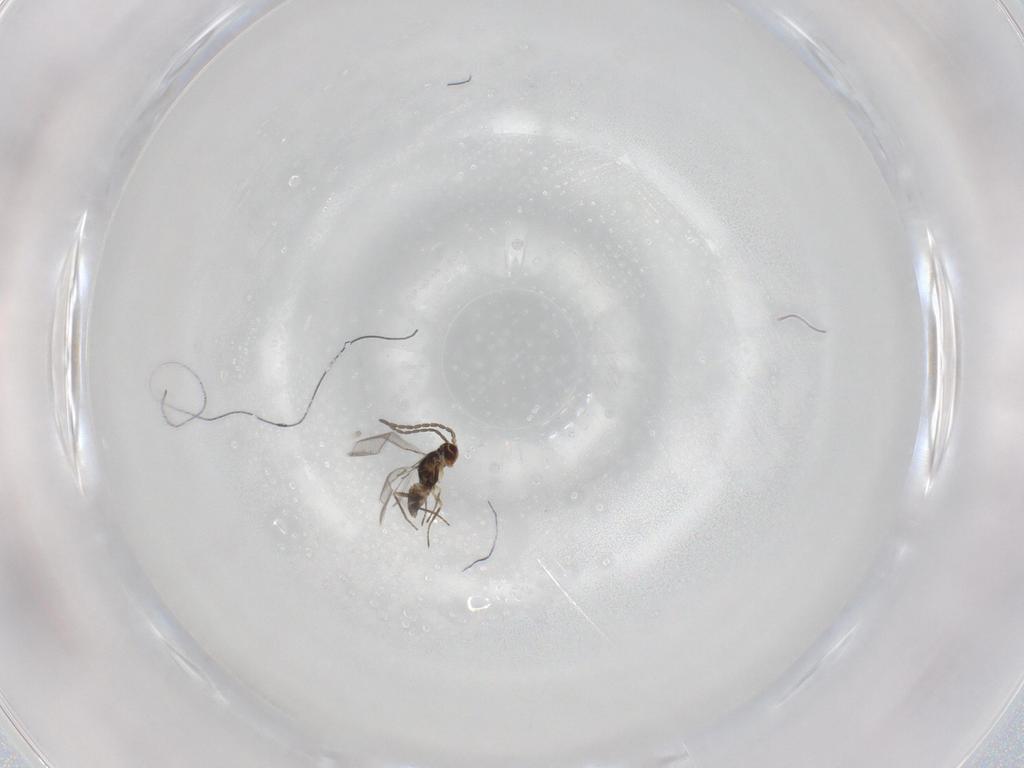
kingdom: Animalia
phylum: Arthropoda
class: Insecta
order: Hymenoptera
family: Mymaridae
